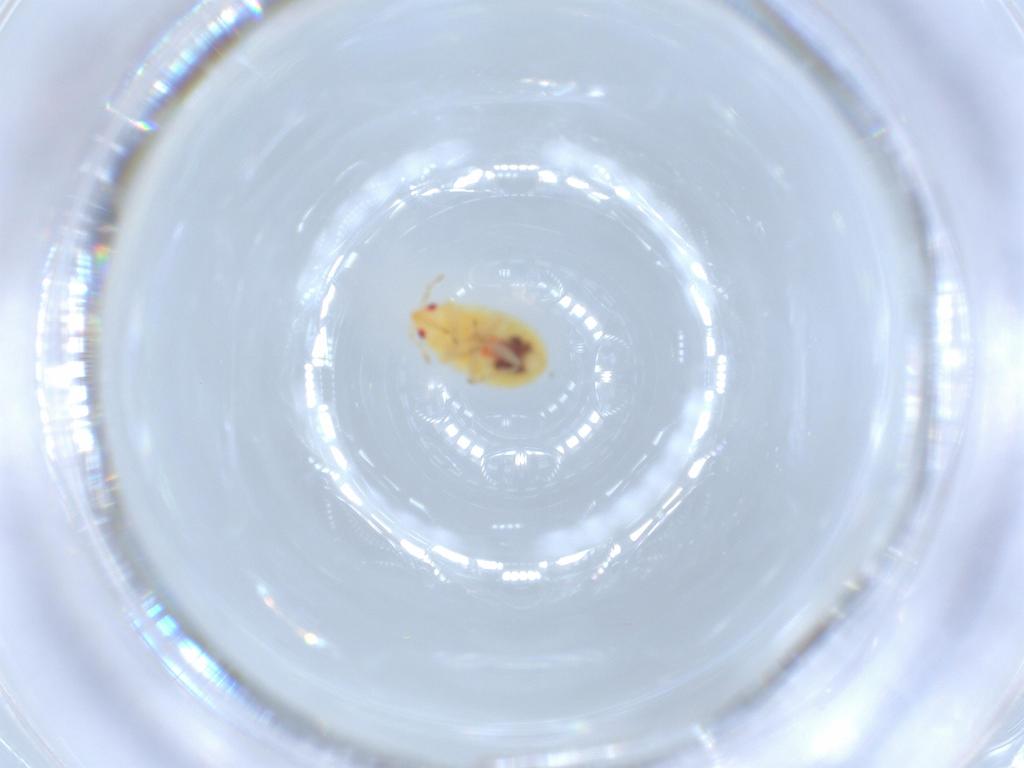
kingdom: Animalia
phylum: Arthropoda
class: Insecta
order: Hemiptera
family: Anthocoridae
